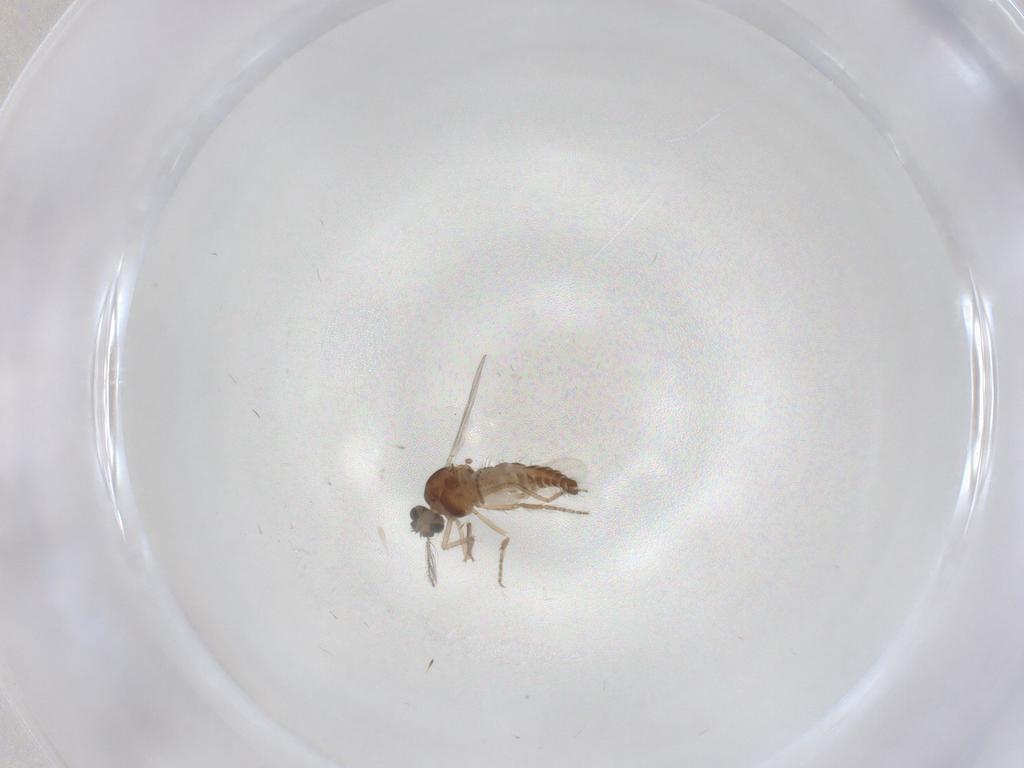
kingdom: Animalia
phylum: Arthropoda
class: Insecta
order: Diptera
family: Ceratopogonidae
